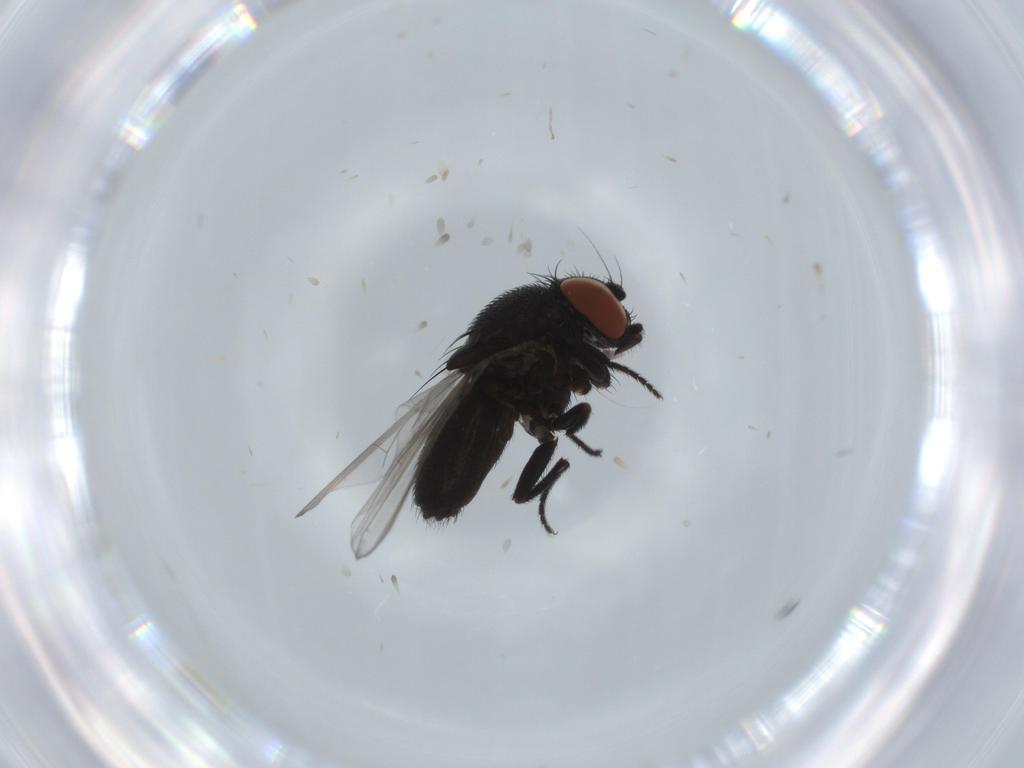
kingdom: Animalia
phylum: Arthropoda
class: Insecta
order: Diptera
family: Milichiidae
